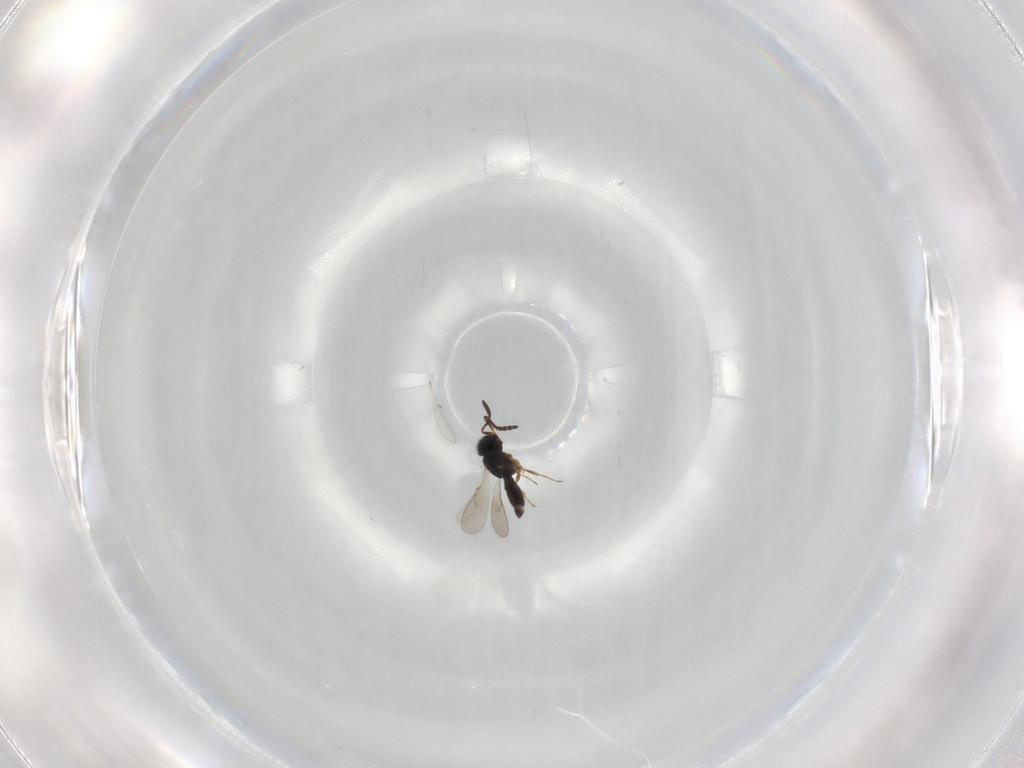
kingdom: Animalia
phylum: Arthropoda
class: Insecta
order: Hymenoptera
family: Scelionidae
